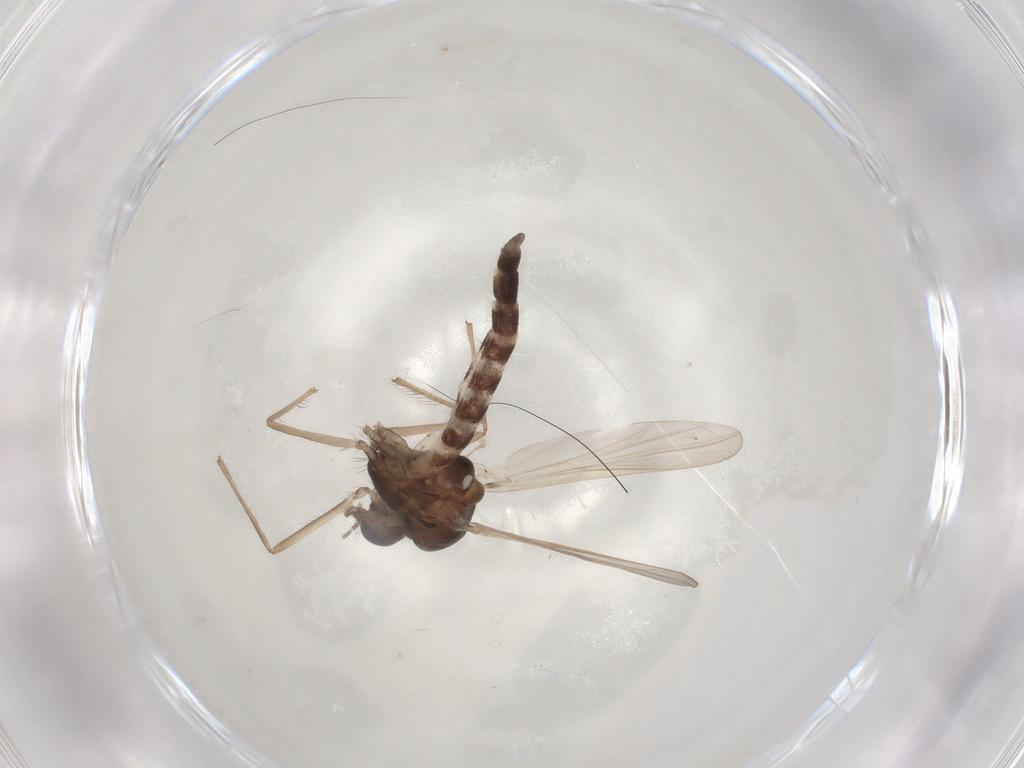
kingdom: Animalia
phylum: Arthropoda
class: Insecta
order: Diptera
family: Chironomidae
